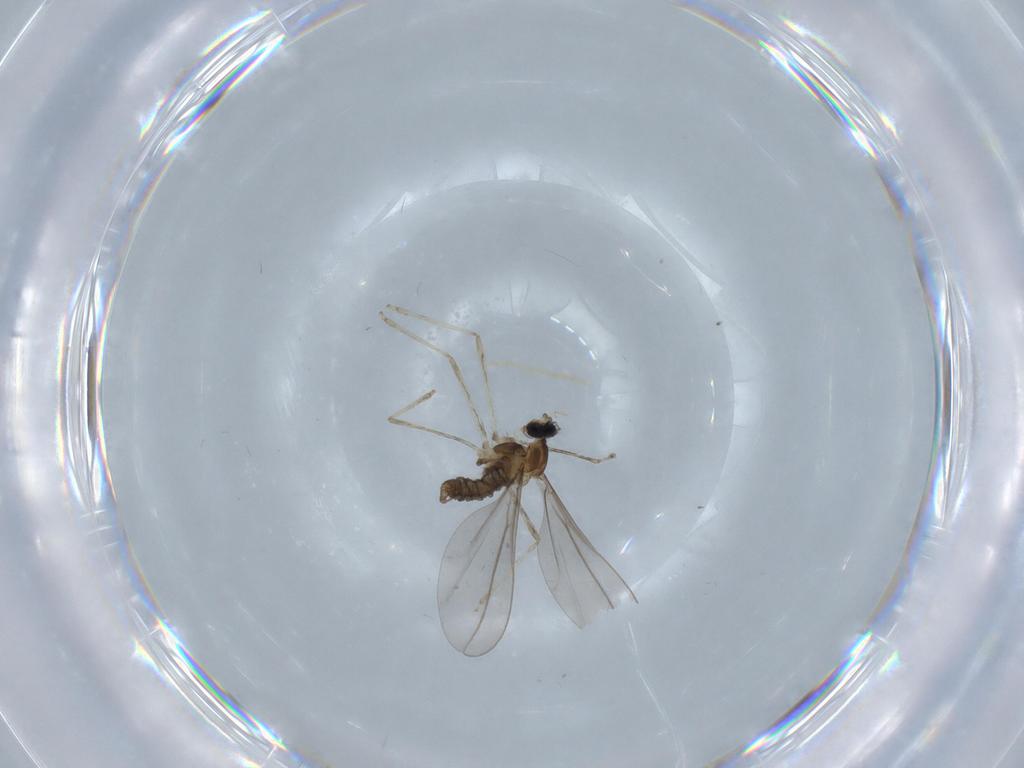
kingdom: Animalia
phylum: Arthropoda
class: Insecta
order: Diptera
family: Cecidomyiidae
